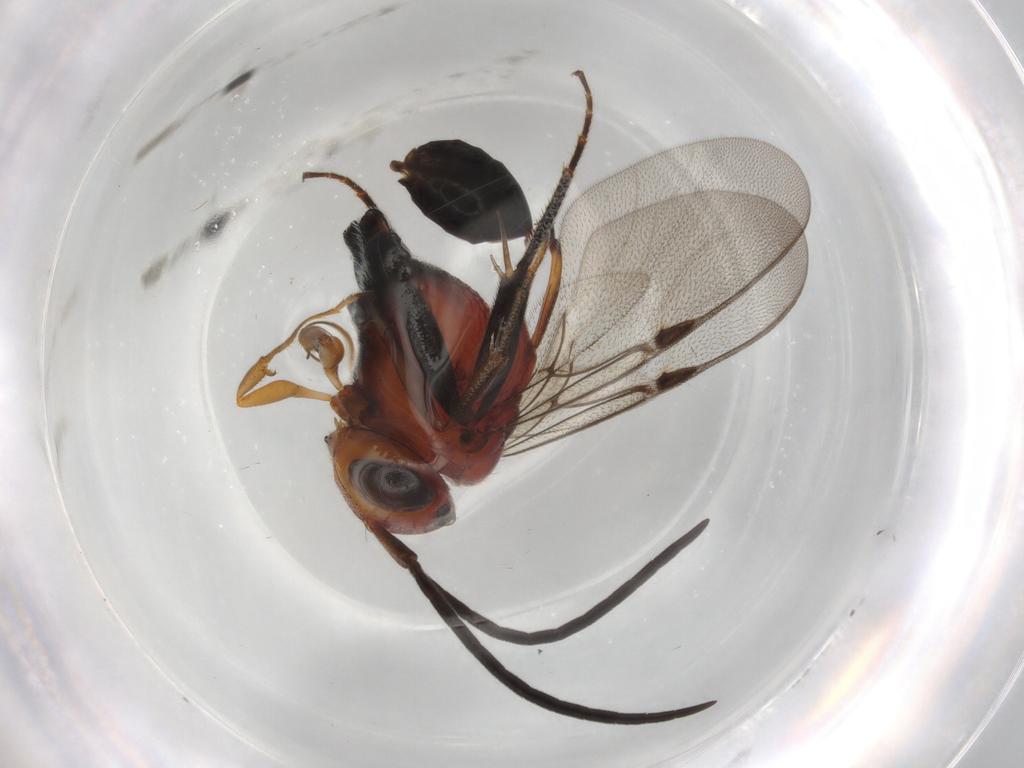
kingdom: Animalia
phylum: Arthropoda
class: Insecta
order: Hymenoptera
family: Evaniidae
